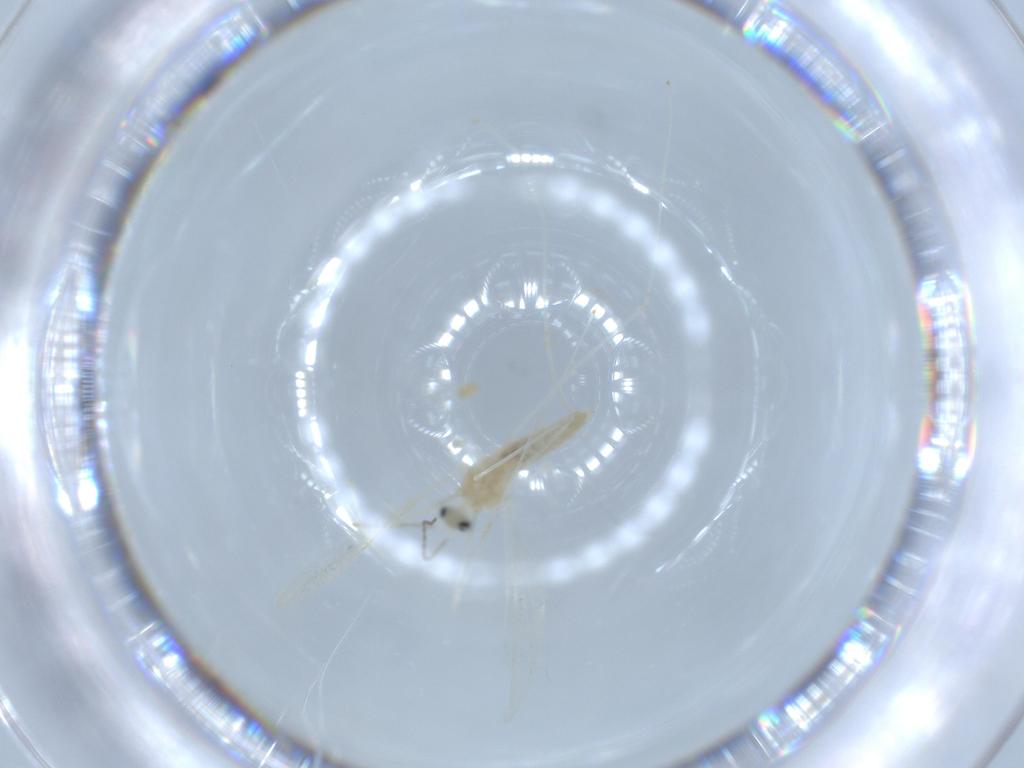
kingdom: Animalia
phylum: Arthropoda
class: Insecta
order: Diptera
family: Cecidomyiidae
